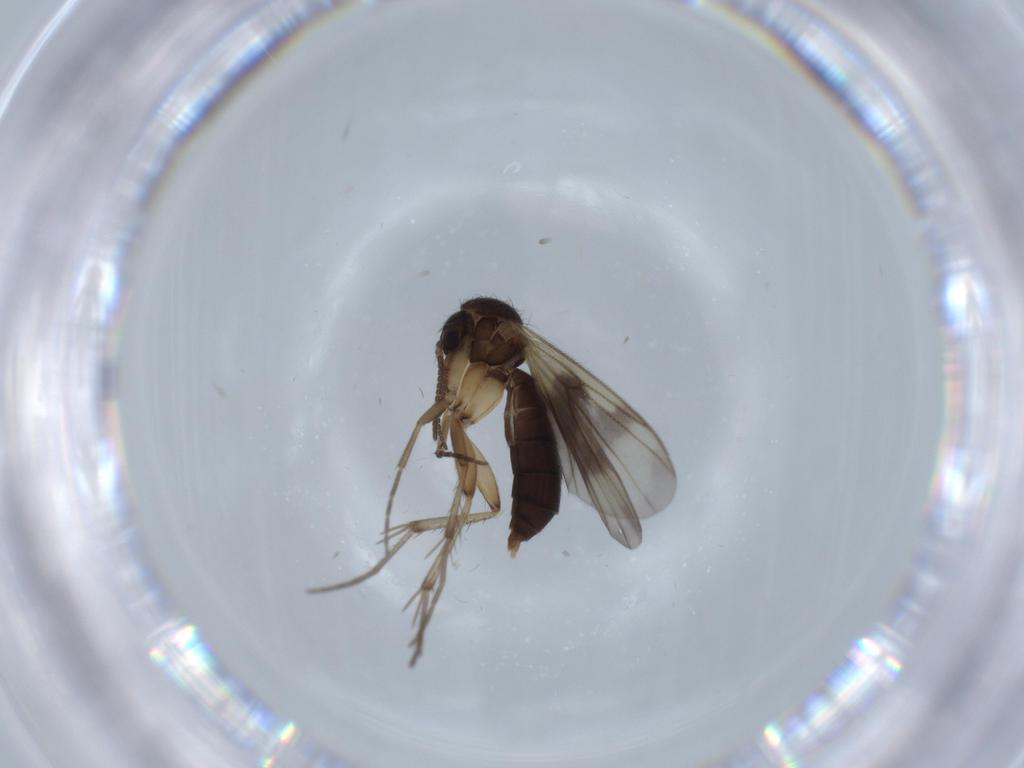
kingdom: Animalia
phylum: Arthropoda
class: Insecta
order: Diptera
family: Mycetophilidae
